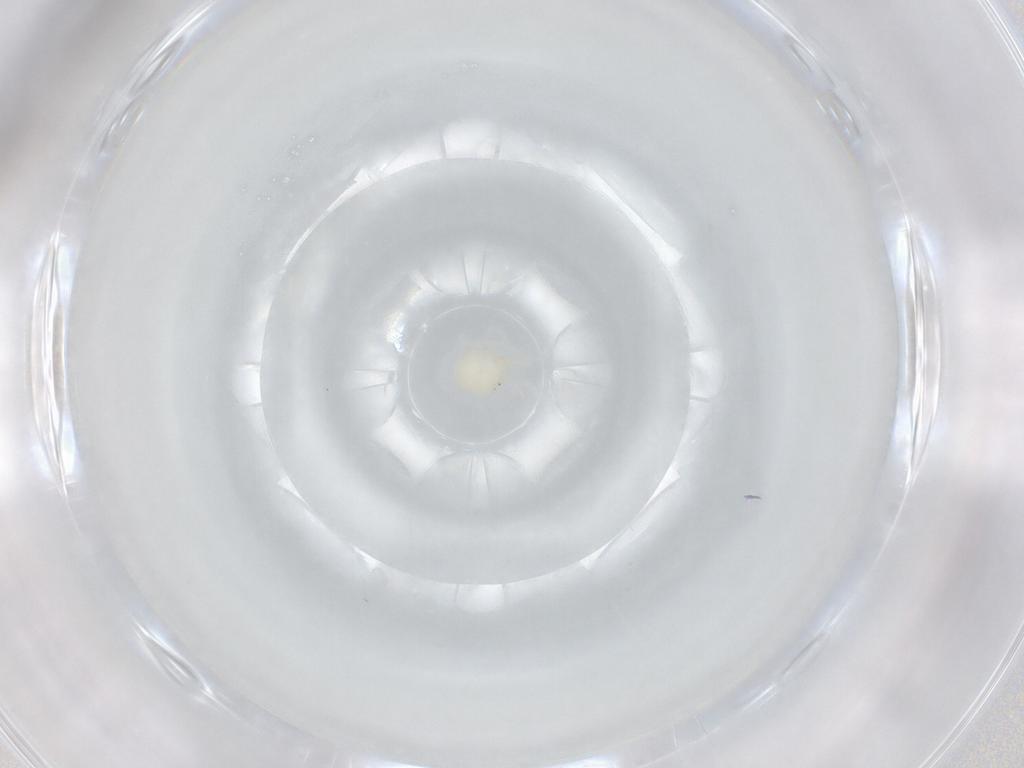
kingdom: Animalia
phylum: Arthropoda
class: Arachnida
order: Trombidiformes
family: Hydryphantidae
